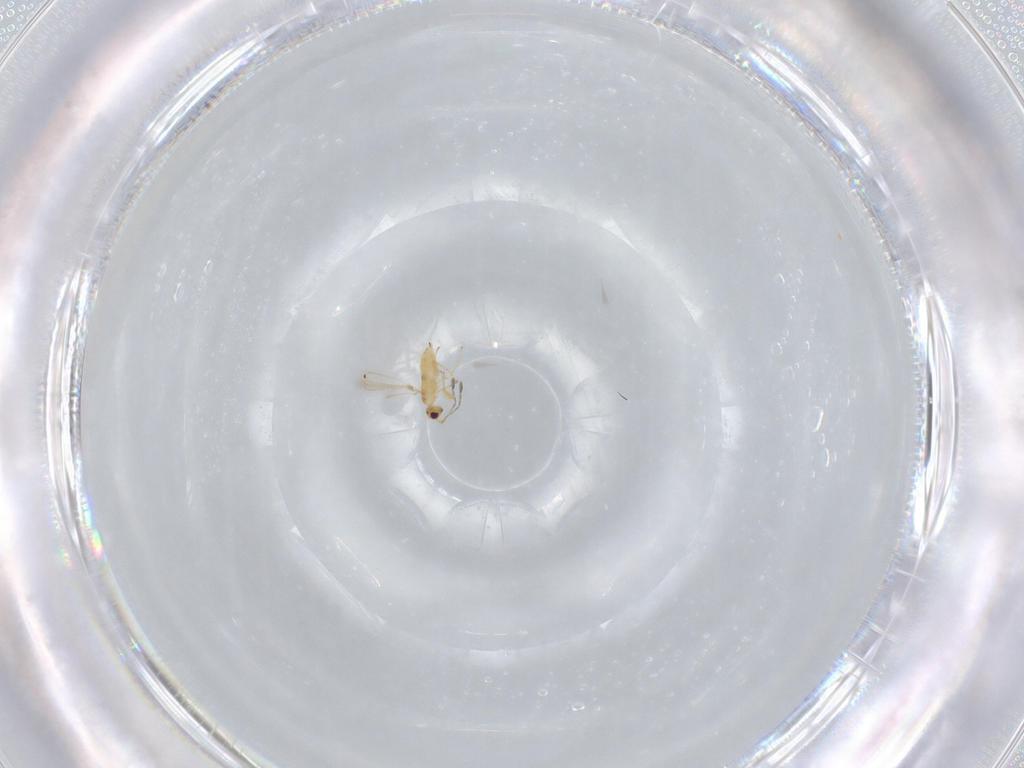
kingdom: Animalia
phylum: Arthropoda
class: Insecta
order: Hymenoptera
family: Mymaridae
